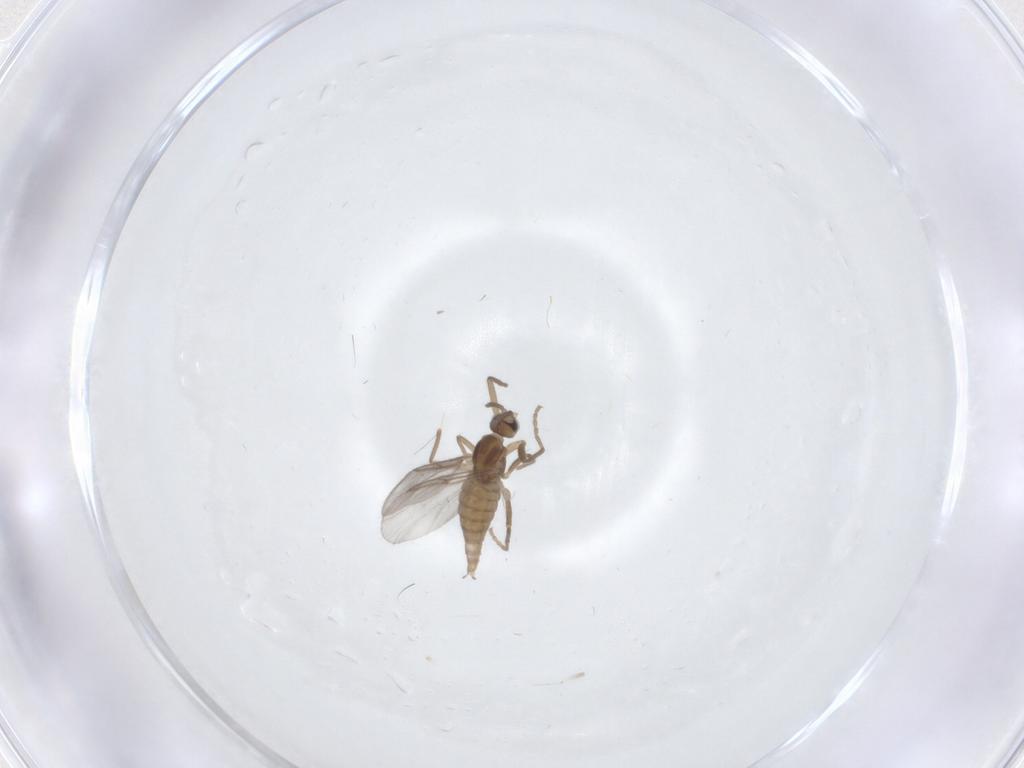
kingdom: Animalia
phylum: Arthropoda
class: Insecta
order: Diptera
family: Cecidomyiidae
